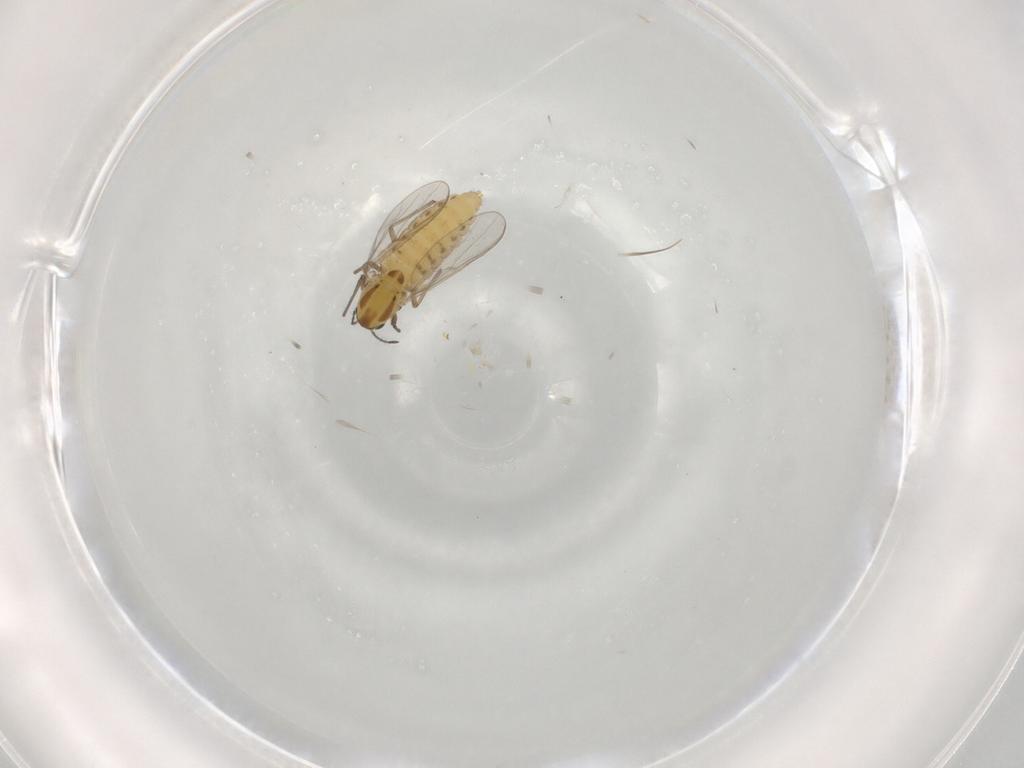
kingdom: Animalia
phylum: Arthropoda
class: Insecta
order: Diptera
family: Chironomidae
